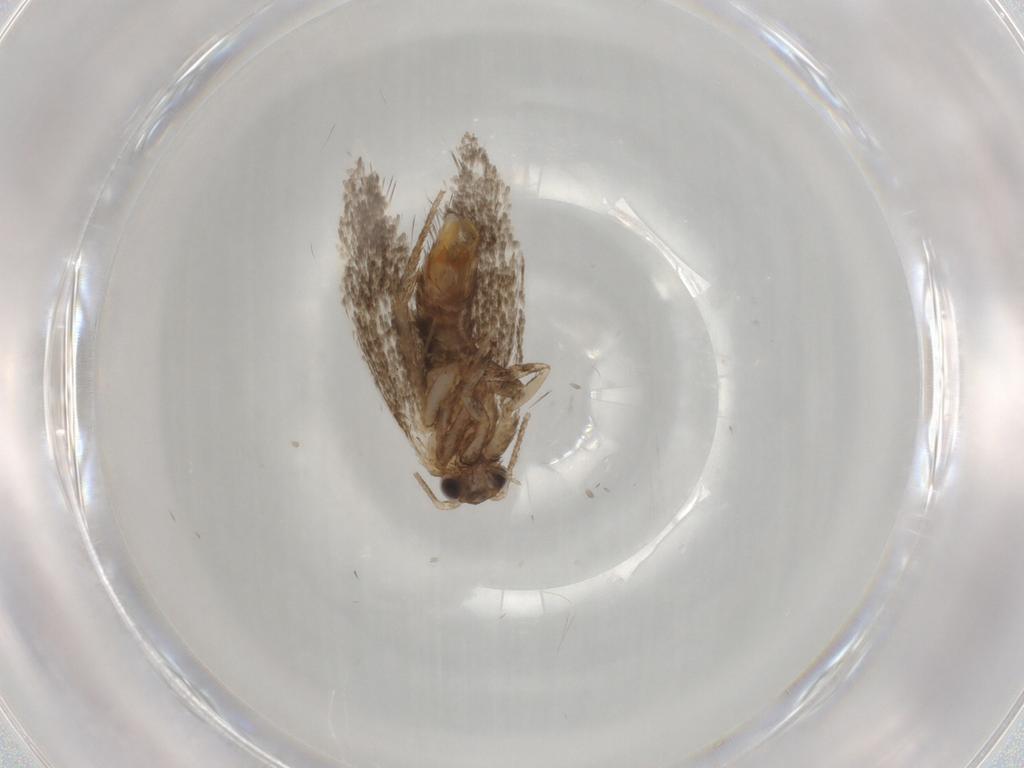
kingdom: Animalia
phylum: Arthropoda
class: Insecta
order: Lepidoptera
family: Tineidae
